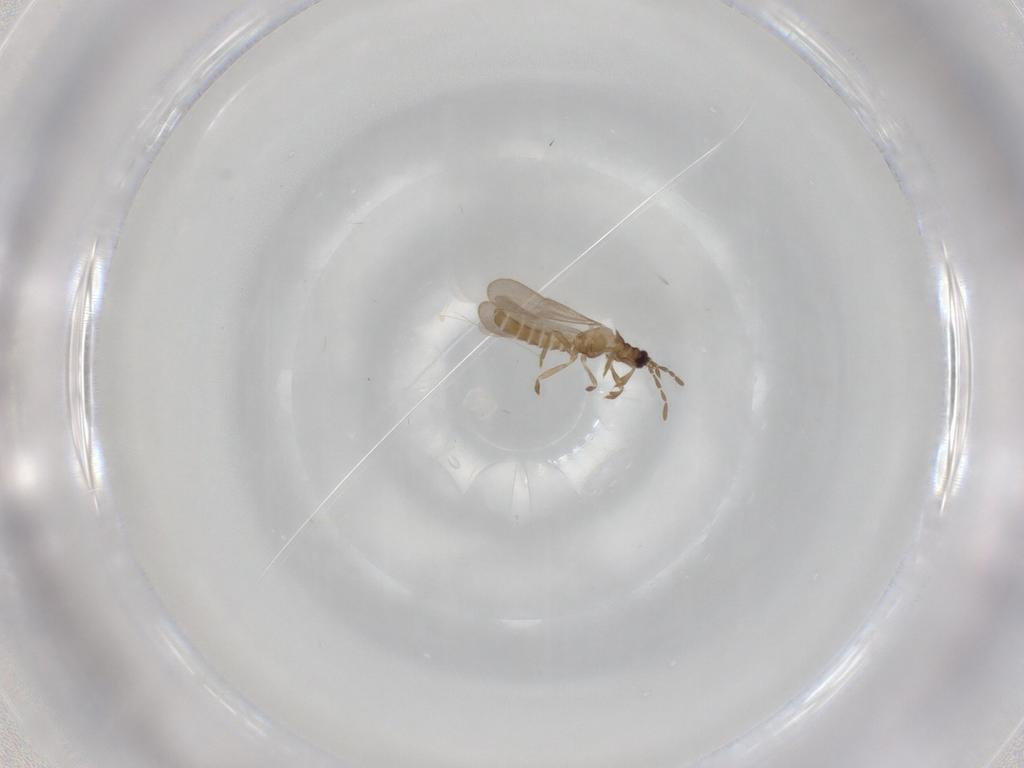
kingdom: Animalia
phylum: Arthropoda
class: Insecta
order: Hemiptera
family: Enicocephalidae
